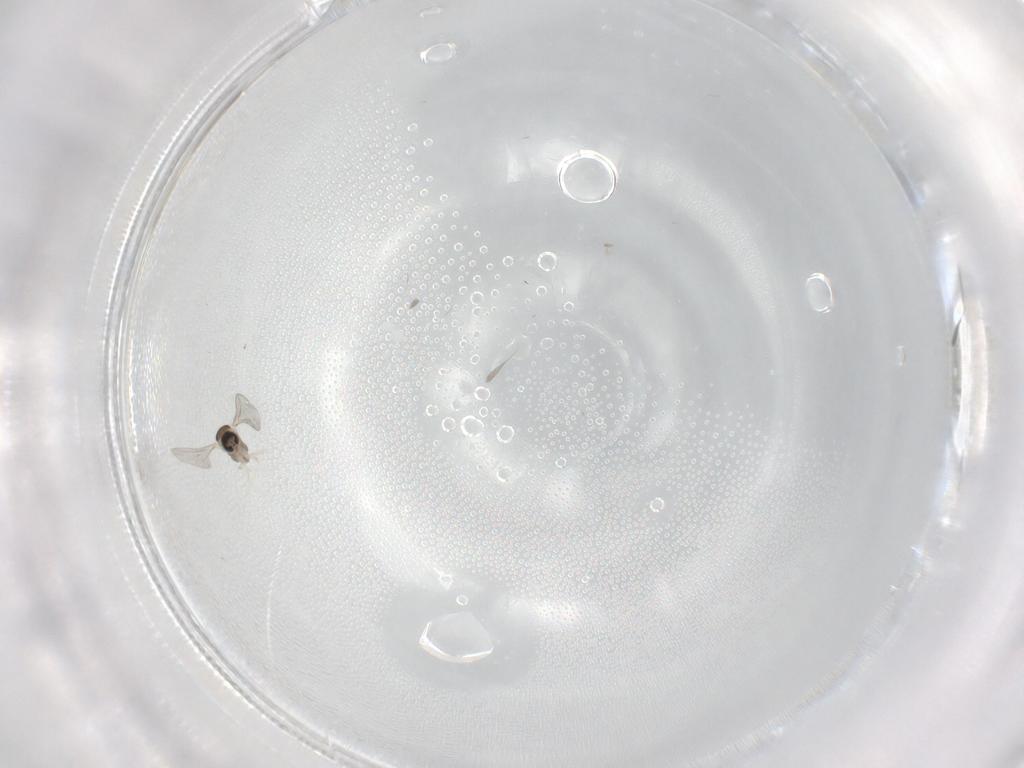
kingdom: Animalia
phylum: Arthropoda
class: Insecta
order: Diptera
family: Cecidomyiidae
